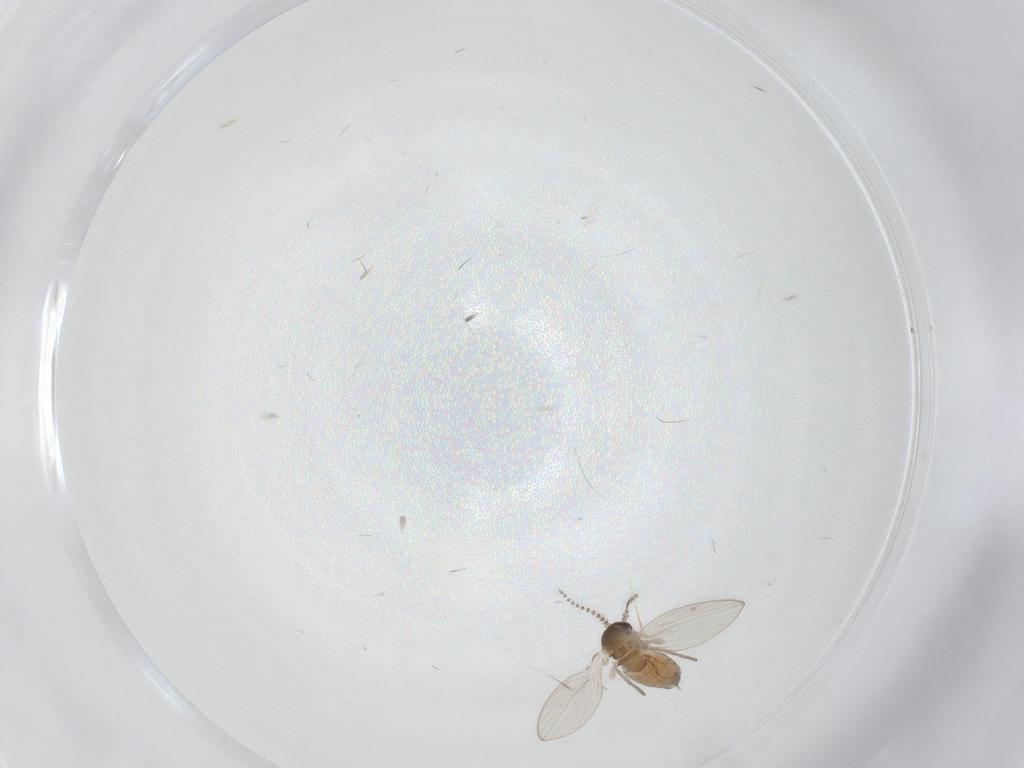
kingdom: Animalia
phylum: Arthropoda
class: Insecta
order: Diptera
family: Psychodidae
